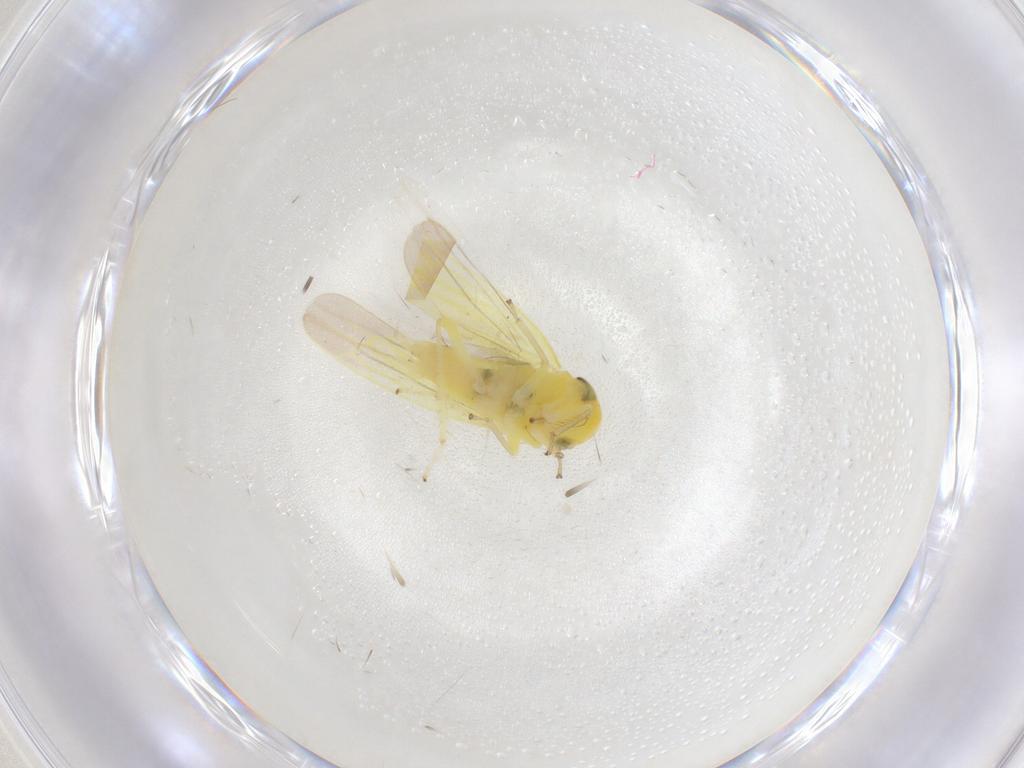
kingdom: Animalia
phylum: Arthropoda
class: Insecta
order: Hemiptera
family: Cicadellidae
